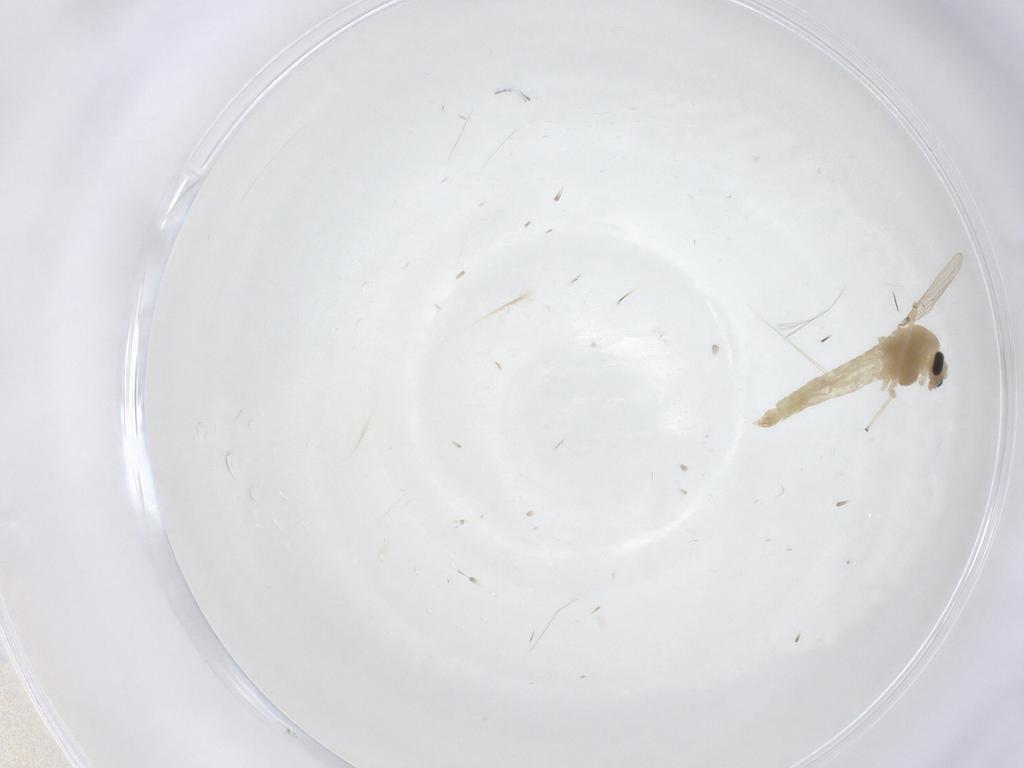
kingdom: Animalia
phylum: Arthropoda
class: Insecta
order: Diptera
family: Chironomidae
